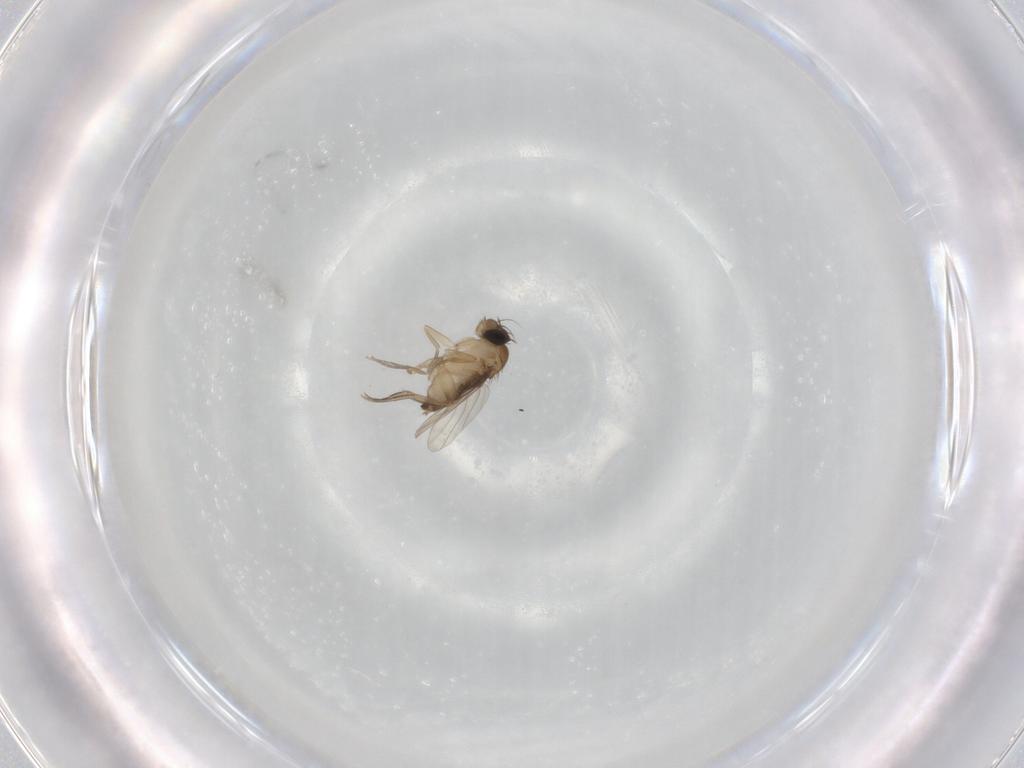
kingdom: Animalia
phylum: Arthropoda
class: Insecta
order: Diptera
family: Phoridae
